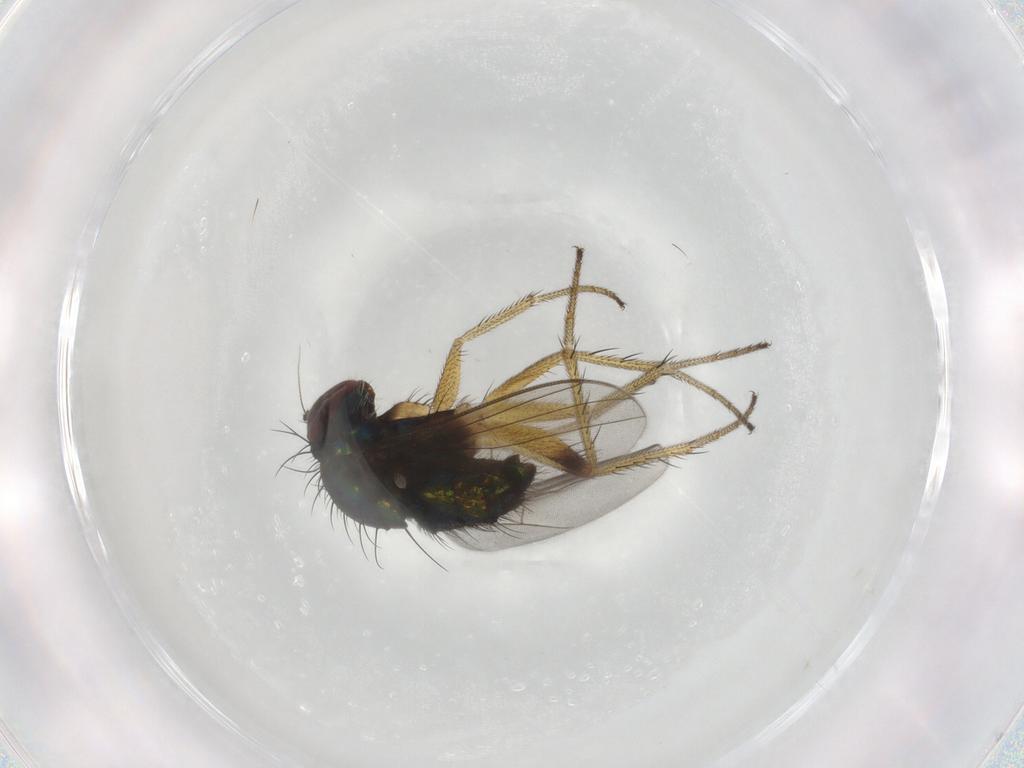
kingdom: Animalia
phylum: Arthropoda
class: Insecta
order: Diptera
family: Dolichopodidae
